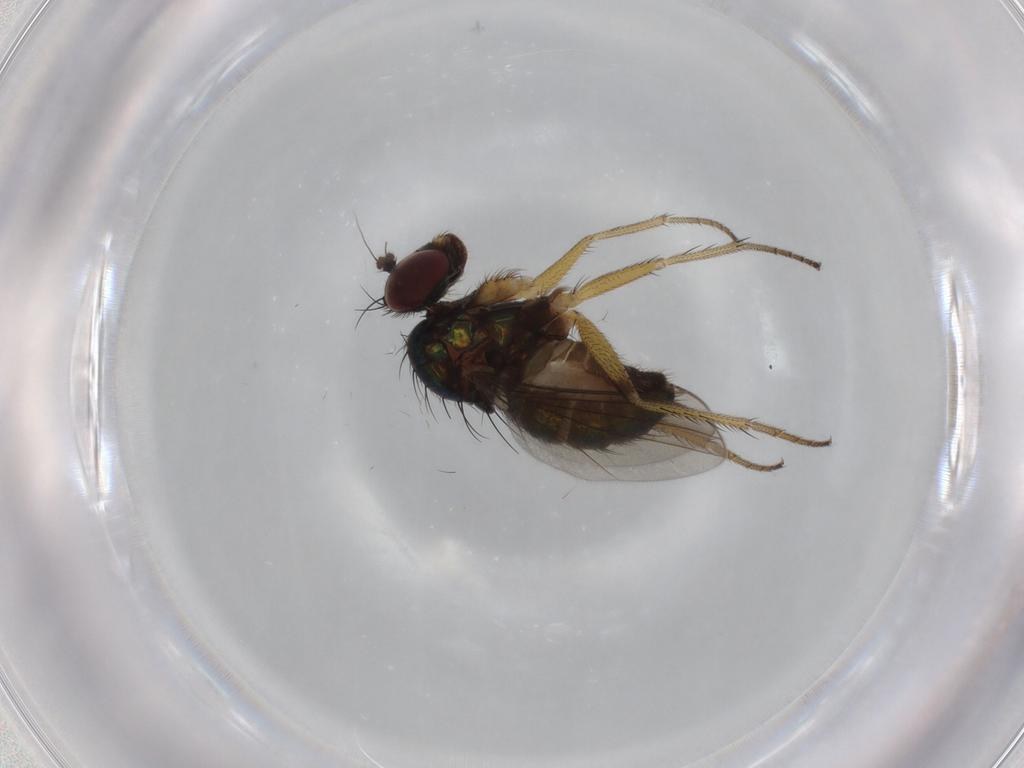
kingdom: Animalia
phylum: Arthropoda
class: Insecta
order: Diptera
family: Dolichopodidae
